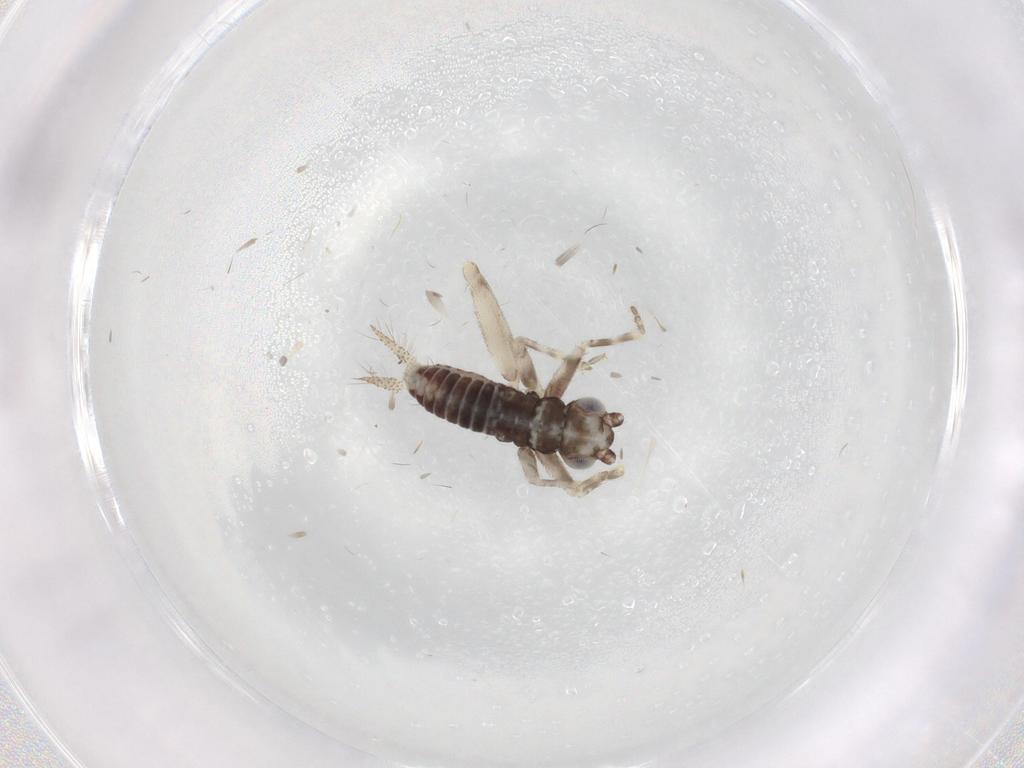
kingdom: Animalia
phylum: Arthropoda
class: Insecta
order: Orthoptera
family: Trigonidiidae
